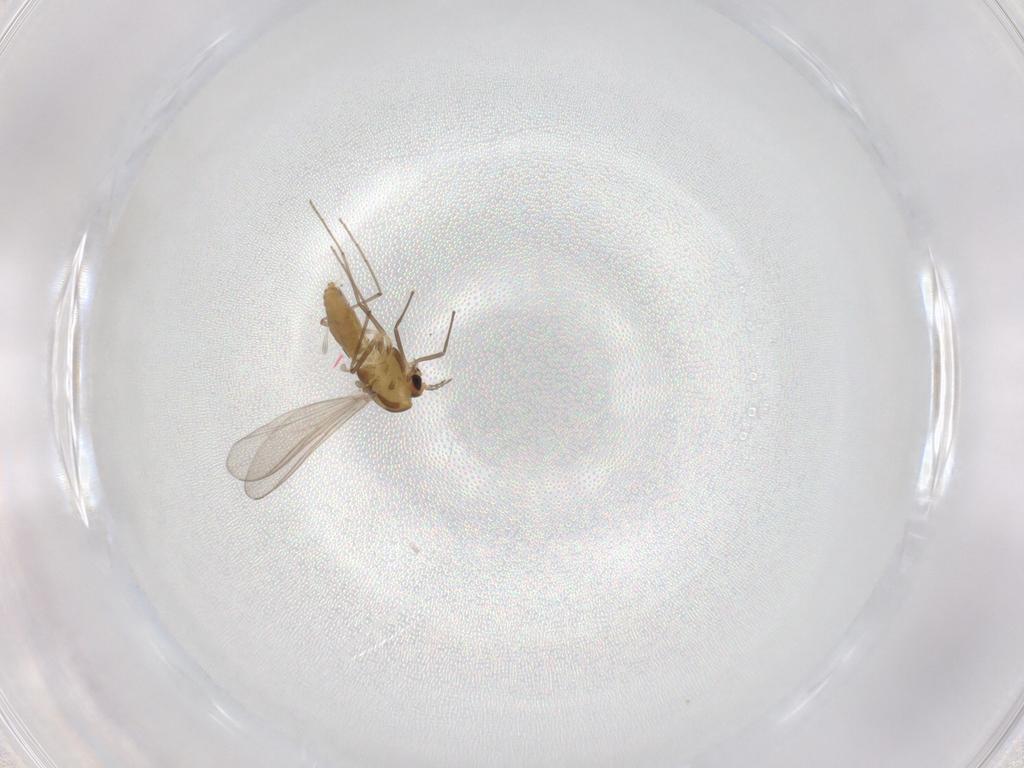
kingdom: Animalia
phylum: Arthropoda
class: Insecta
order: Diptera
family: Chironomidae
